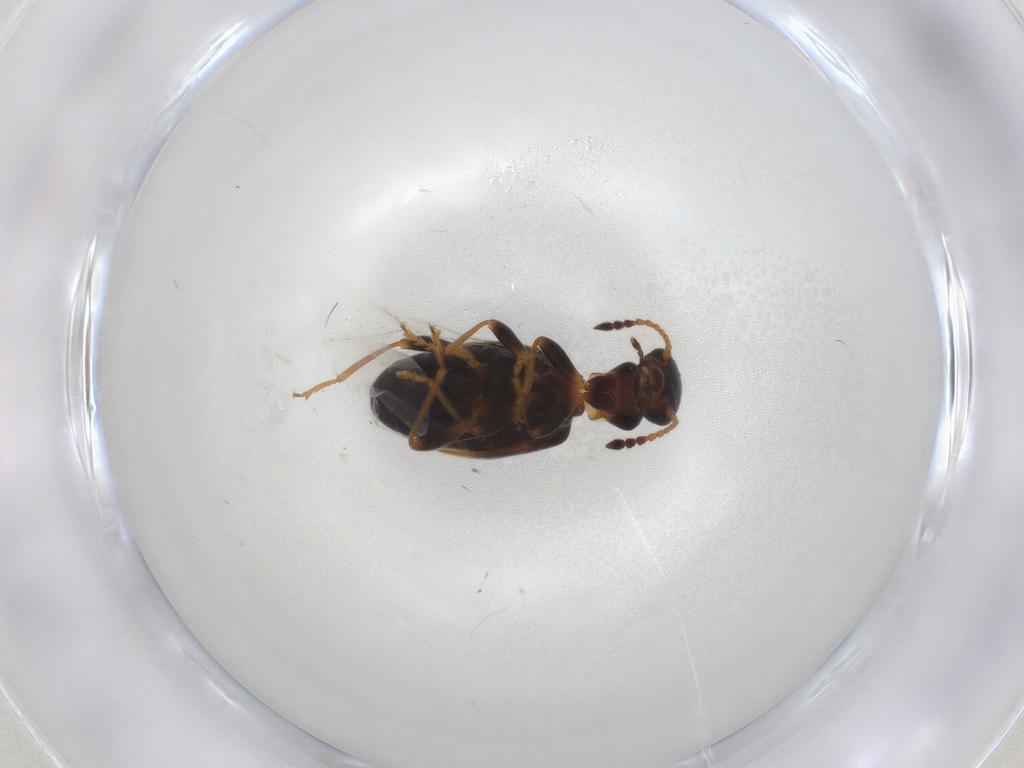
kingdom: Animalia
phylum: Arthropoda
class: Insecta
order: Coleoptera
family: Anthicidae
